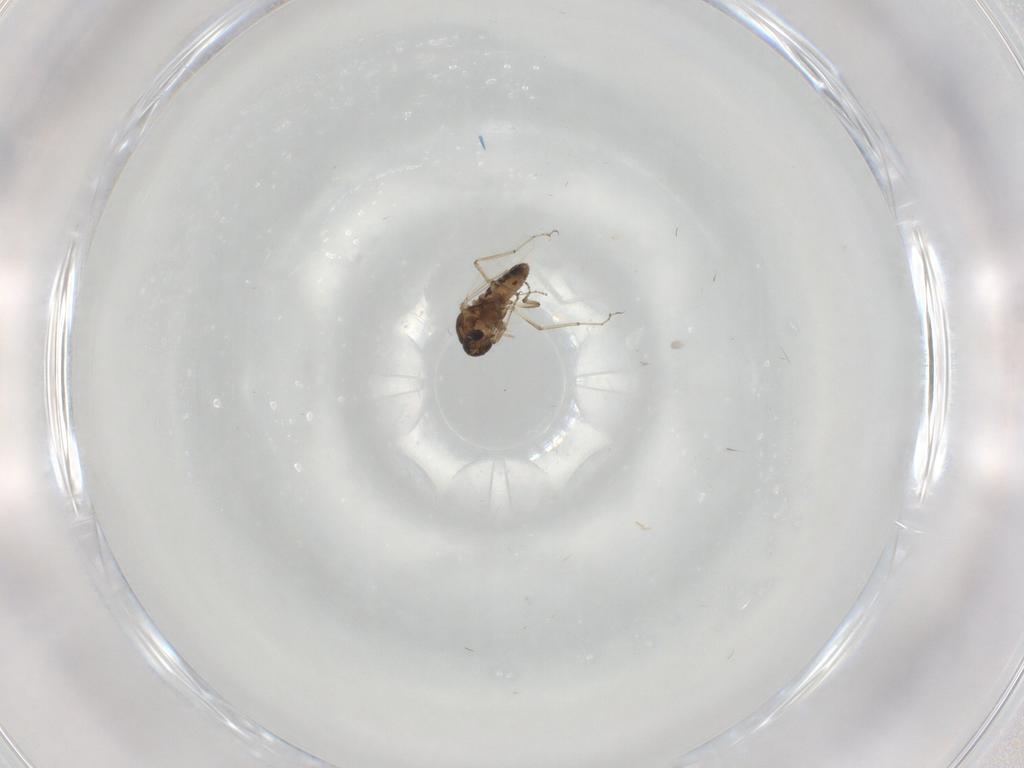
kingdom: Animalia
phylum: Arthropoda
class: Insecta
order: Diptera
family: Ceratopogonidae
